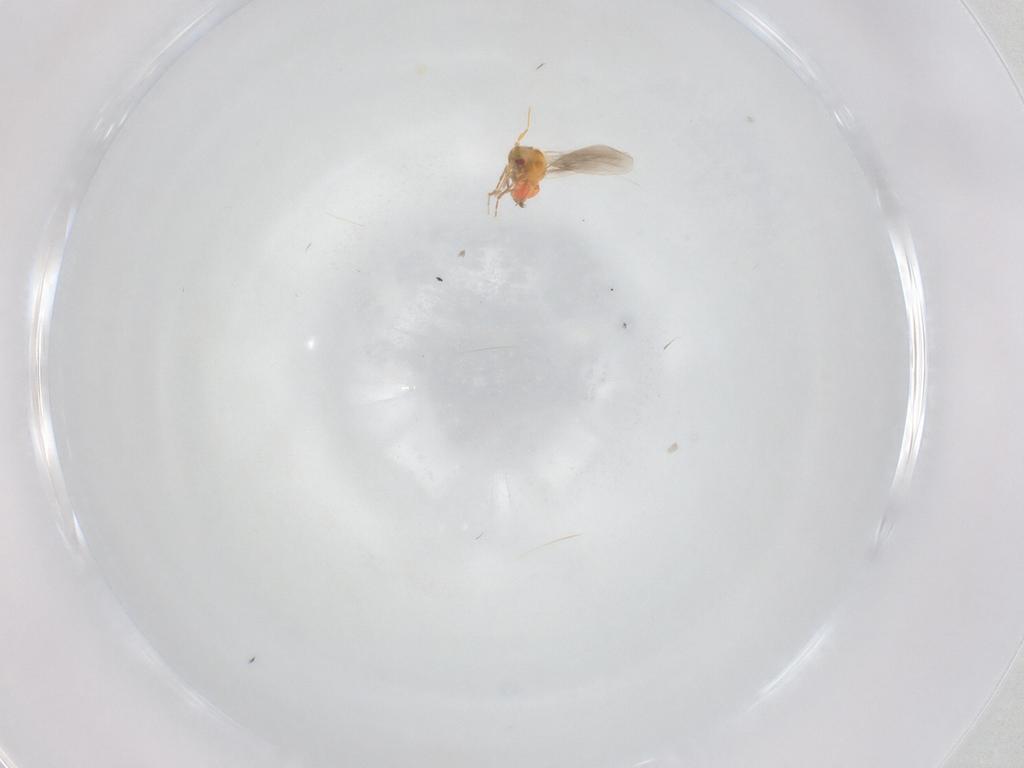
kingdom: Animalia
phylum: Arthropoda
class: Insecta
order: Hemiptera
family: Aleyrodidae
